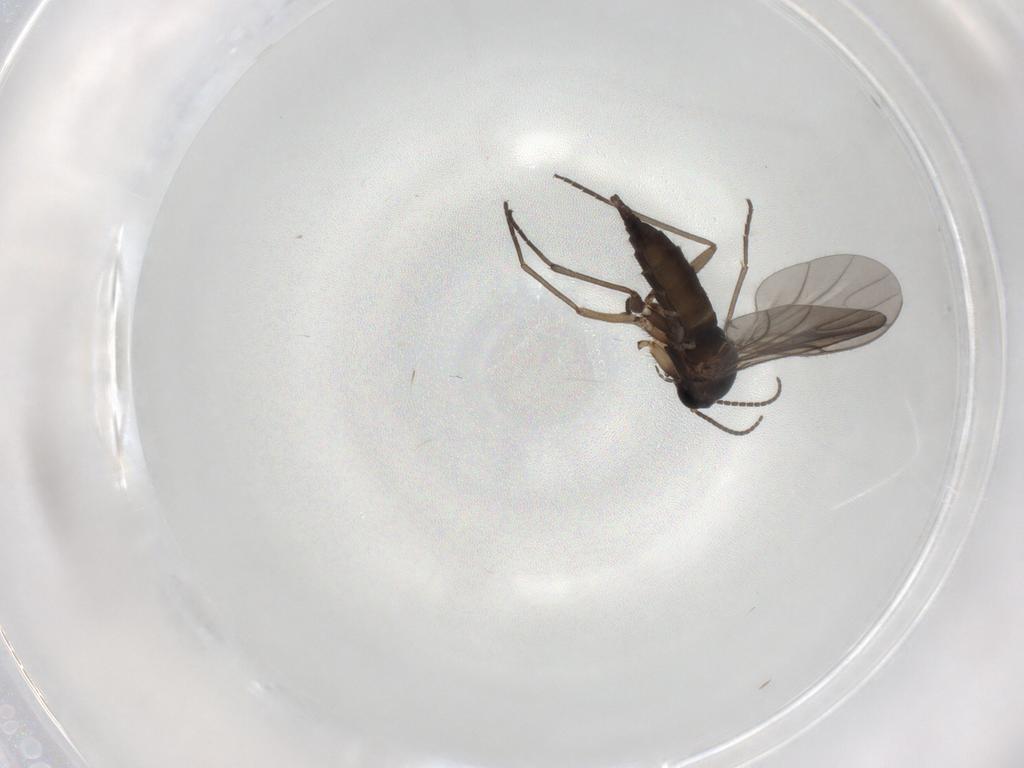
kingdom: Animalia
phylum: Arthropoda
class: Insecta
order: Diptera
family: Sciaridae
